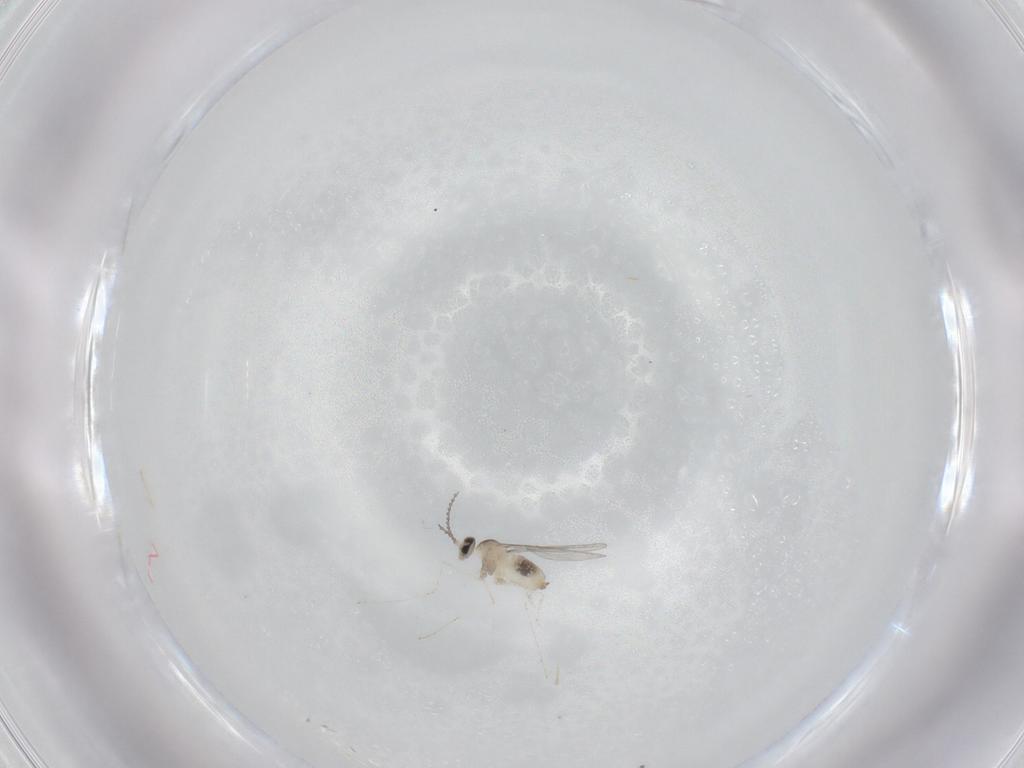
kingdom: Animalia
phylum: Arthropoda
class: Insecta
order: Diptera
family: Cecidomyiidae
